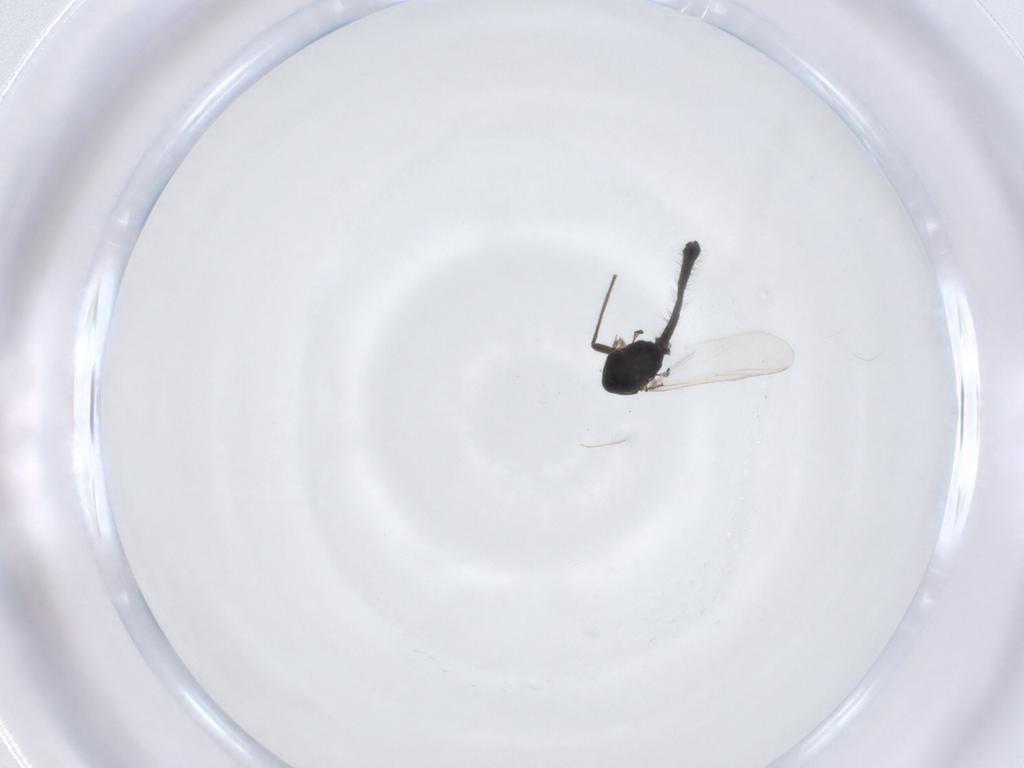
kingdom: Animalia
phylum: Arthropoda
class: Insecta
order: Diptera
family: Chironomidae
